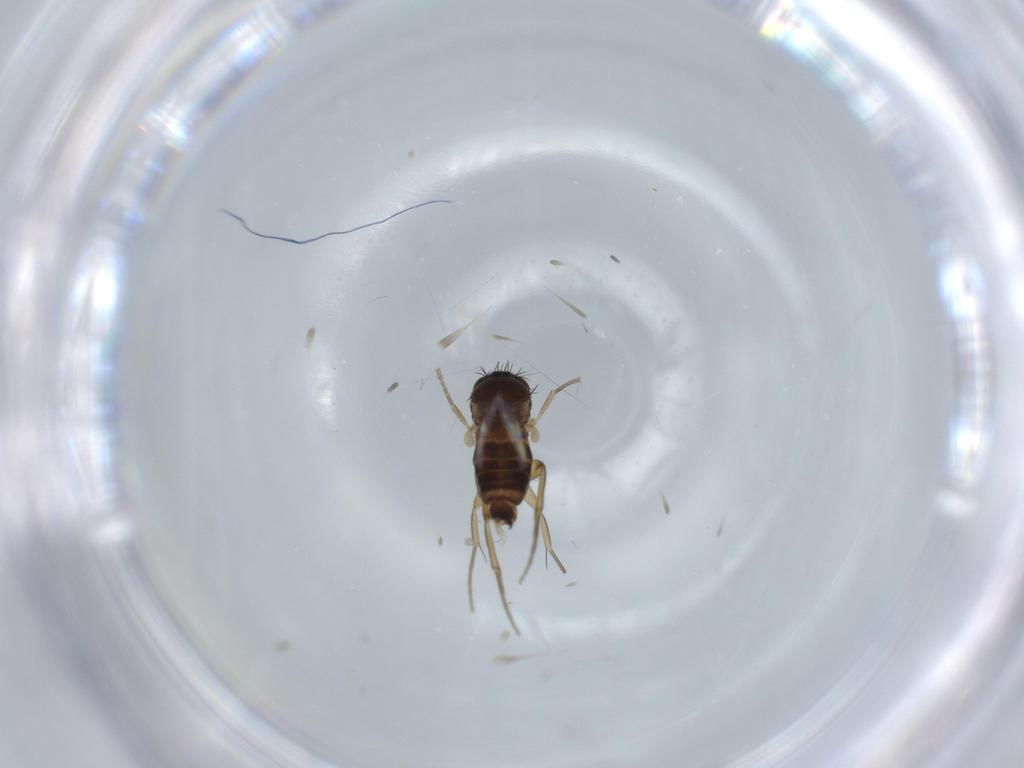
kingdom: Animalia
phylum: Arthropoda
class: Insecta
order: Diptera
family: Phoridae
